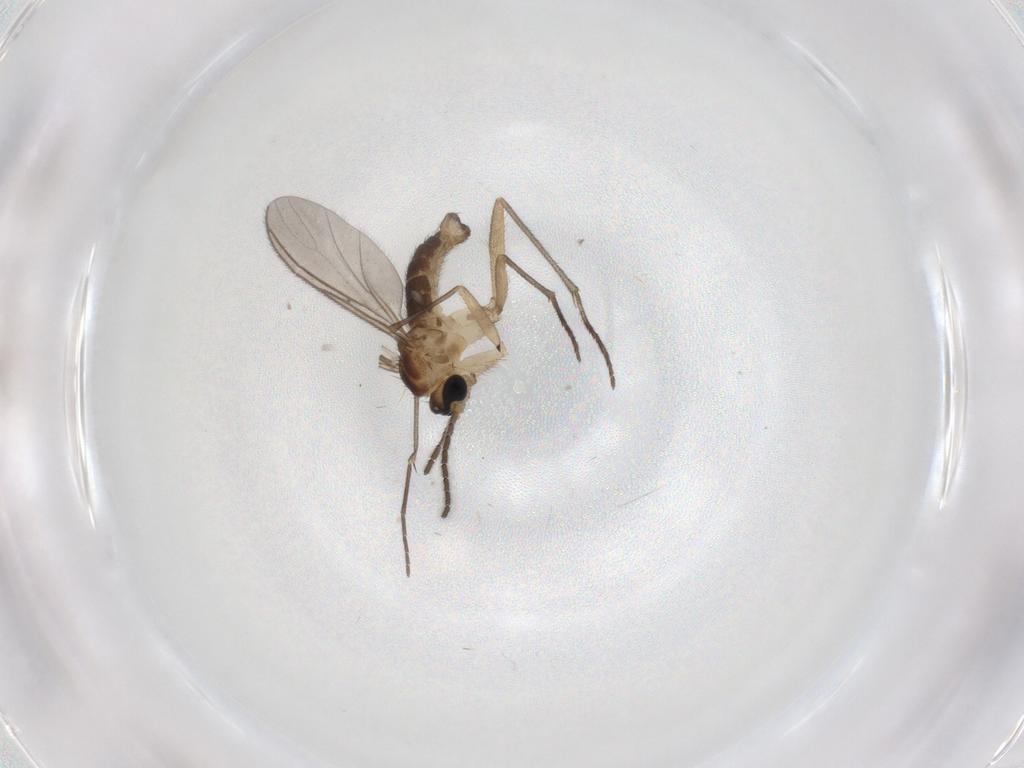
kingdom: Animalia
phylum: Arthropoda
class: Insecta
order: Diptera
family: Sciaridae
